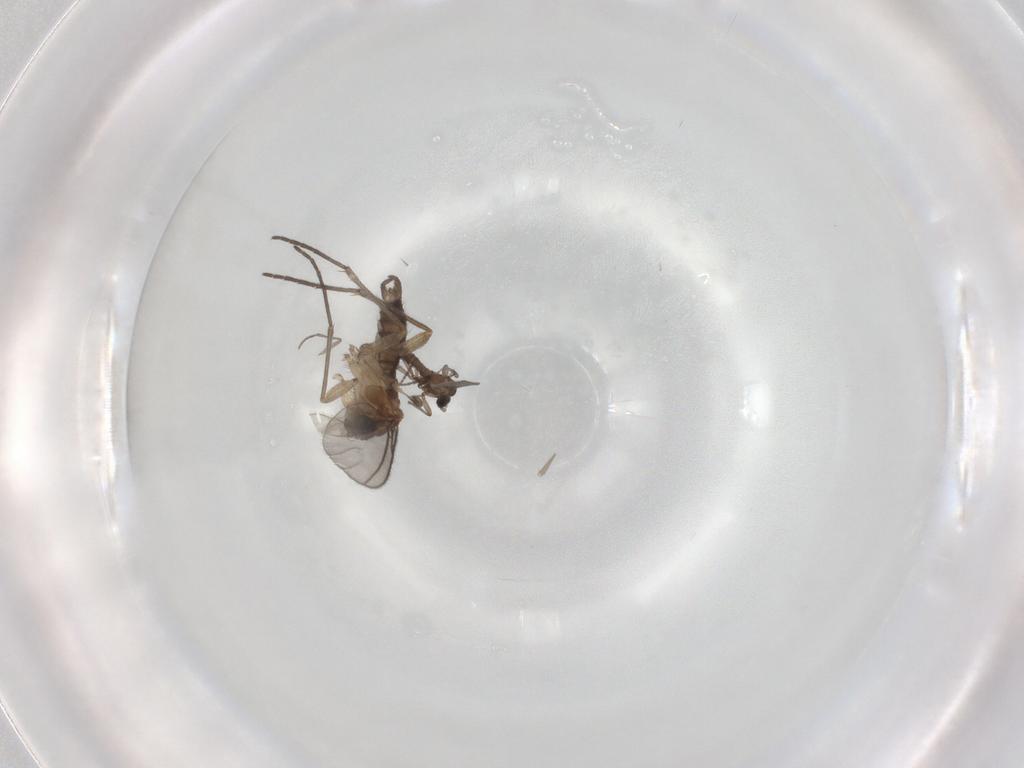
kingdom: Animalia
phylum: Arthropoda
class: Insecta
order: Diptera
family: Sciaridae
